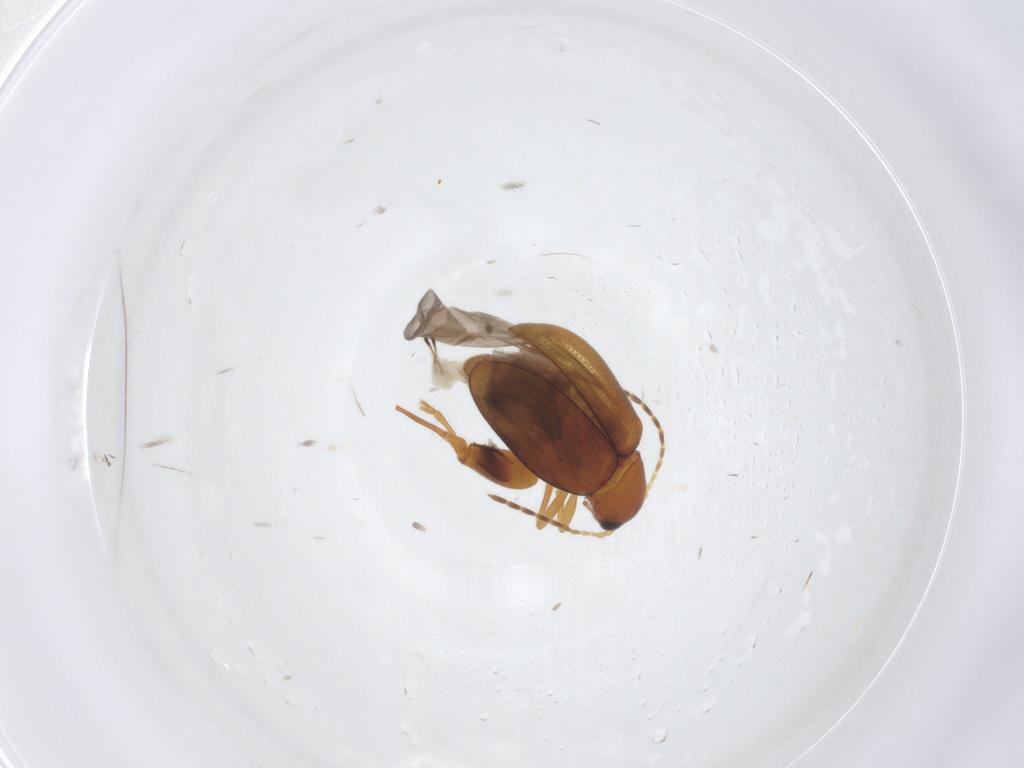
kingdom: Animalia
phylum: Arthropoda
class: Insecta
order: Coleoptera
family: Chrysomelidae
